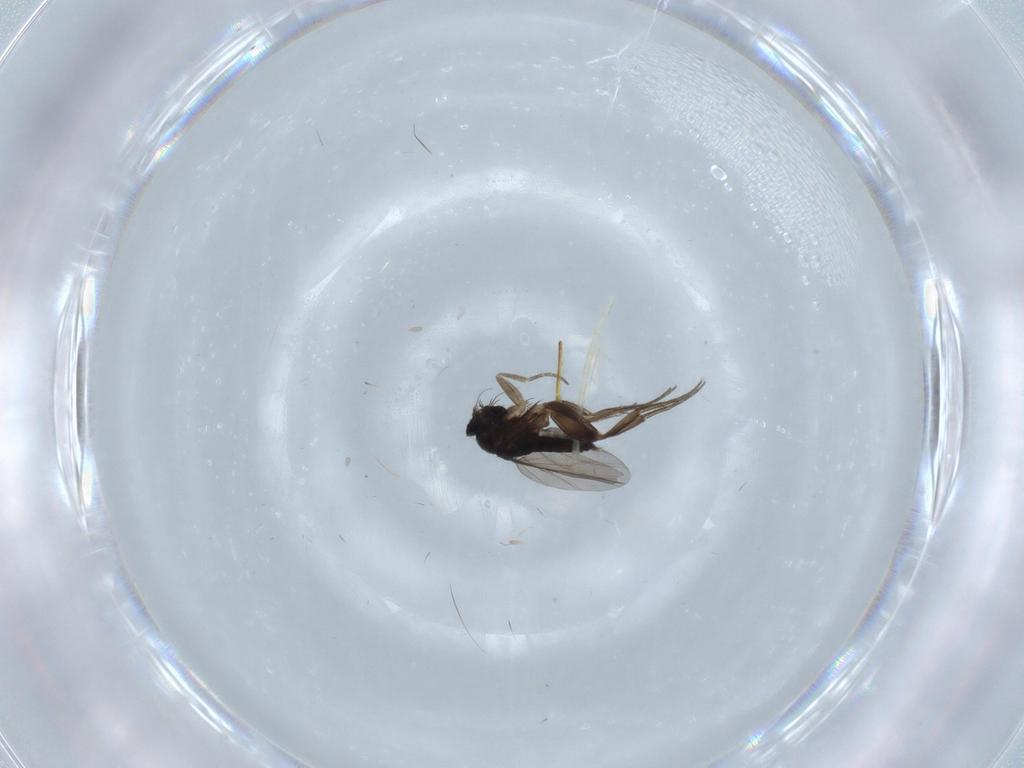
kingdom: Animalia
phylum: Arthropoda
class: Insecta
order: Diptera
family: Phoridae
